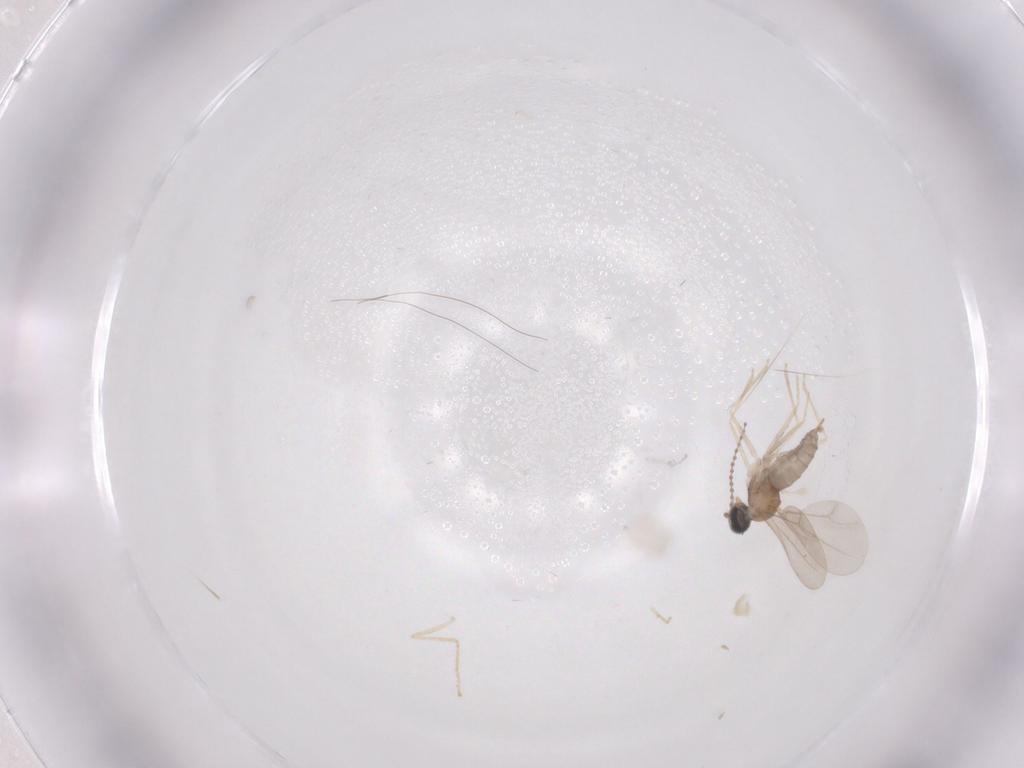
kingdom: Animalia
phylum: Arthropoda
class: Insecta
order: Diptera
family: Cecidomyiidae
